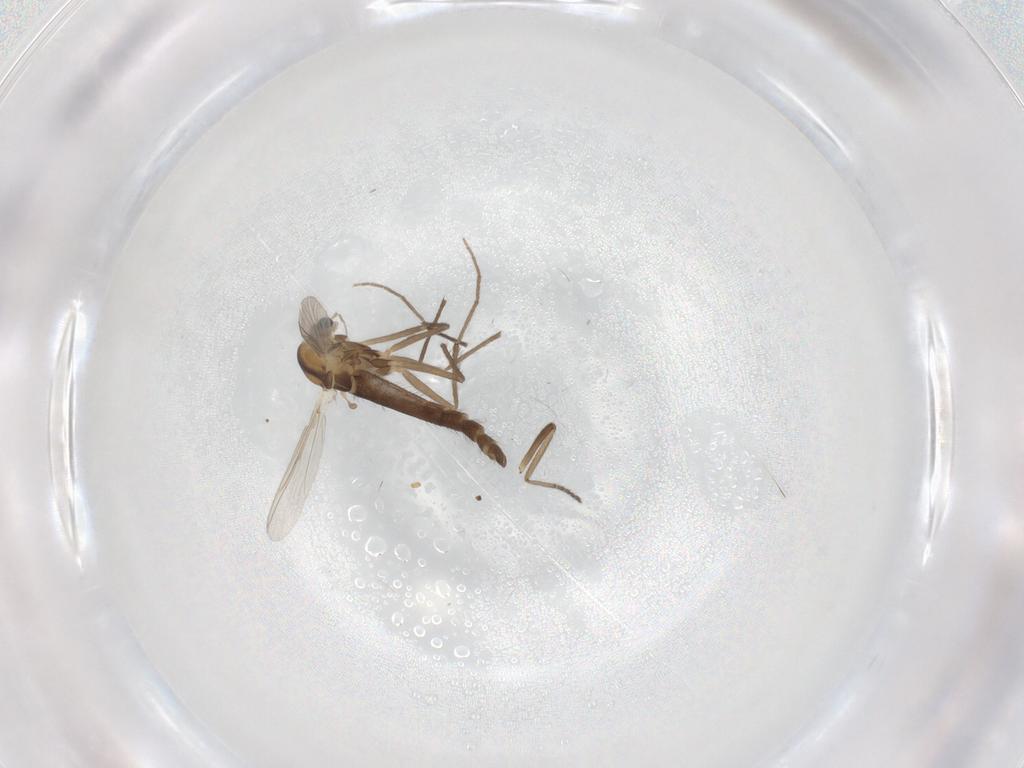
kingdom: Animalia
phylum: Arthropoda
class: Insecta
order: Diptera
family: Chironomidae
